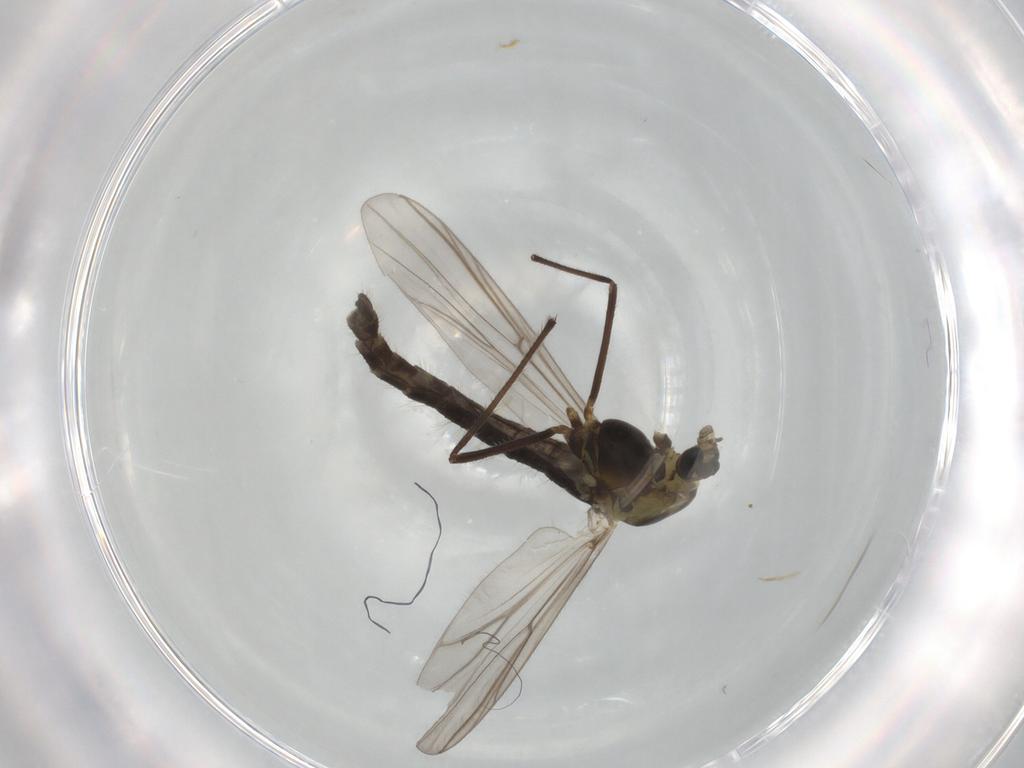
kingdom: Animalia
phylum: Arthropoda
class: Insecta
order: Diptera
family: Chironomidae
